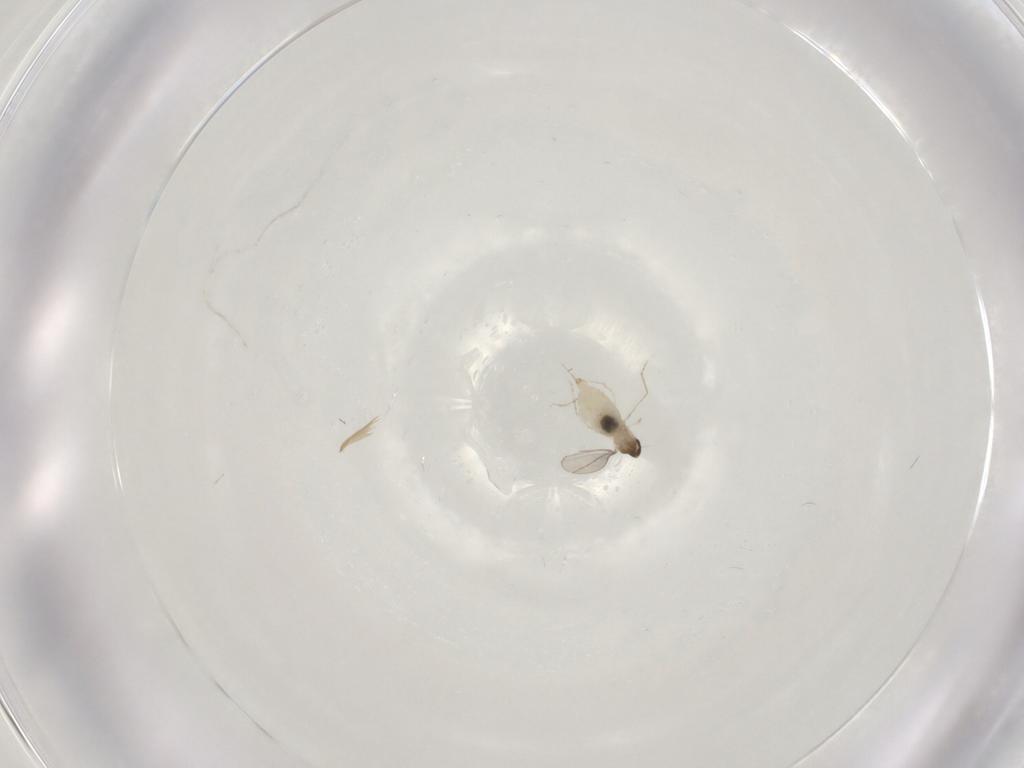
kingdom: Animalia
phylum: Arthropoda
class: Insecta
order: Diptera
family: Cecidomyiidae
